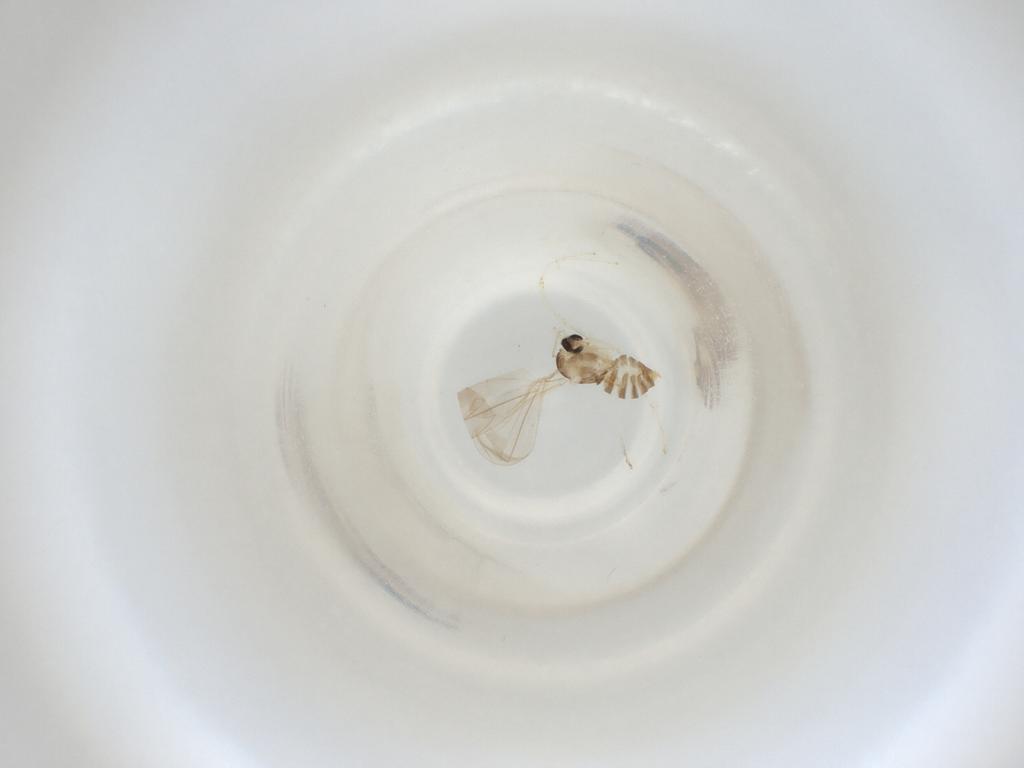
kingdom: Animalia
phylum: Arthropoda
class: Insecta
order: Diptera
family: Cecidomyiidae
